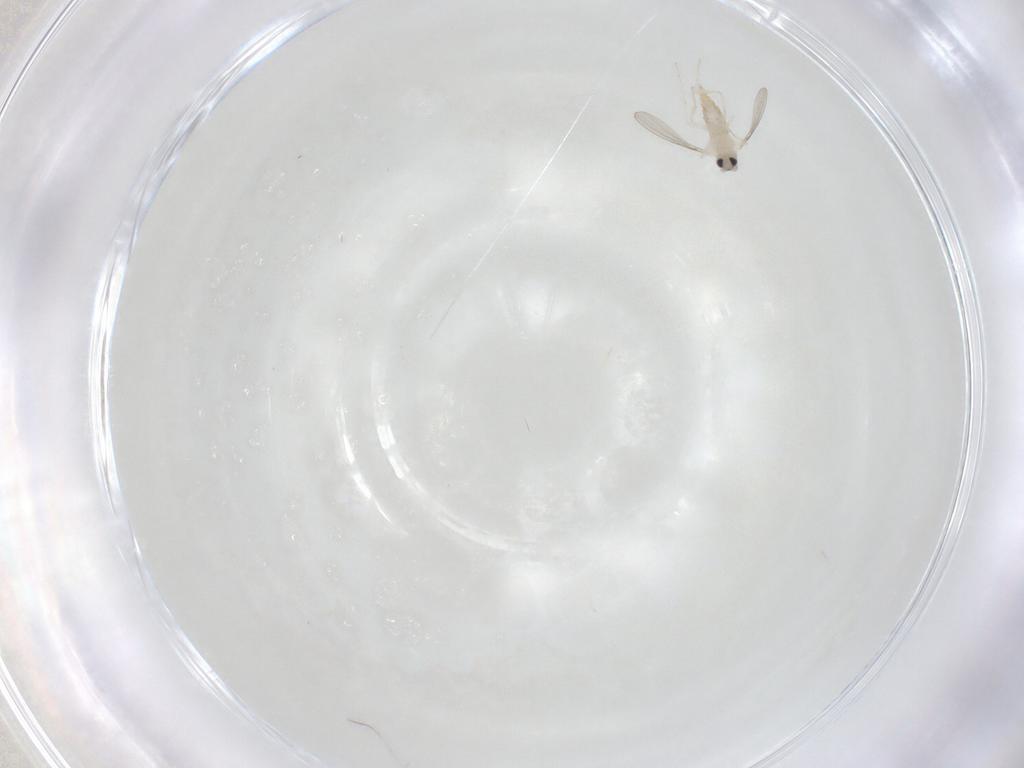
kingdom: Animalia
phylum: Arthropoda
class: Insecta
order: Diptera
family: Cecidomyiidae
